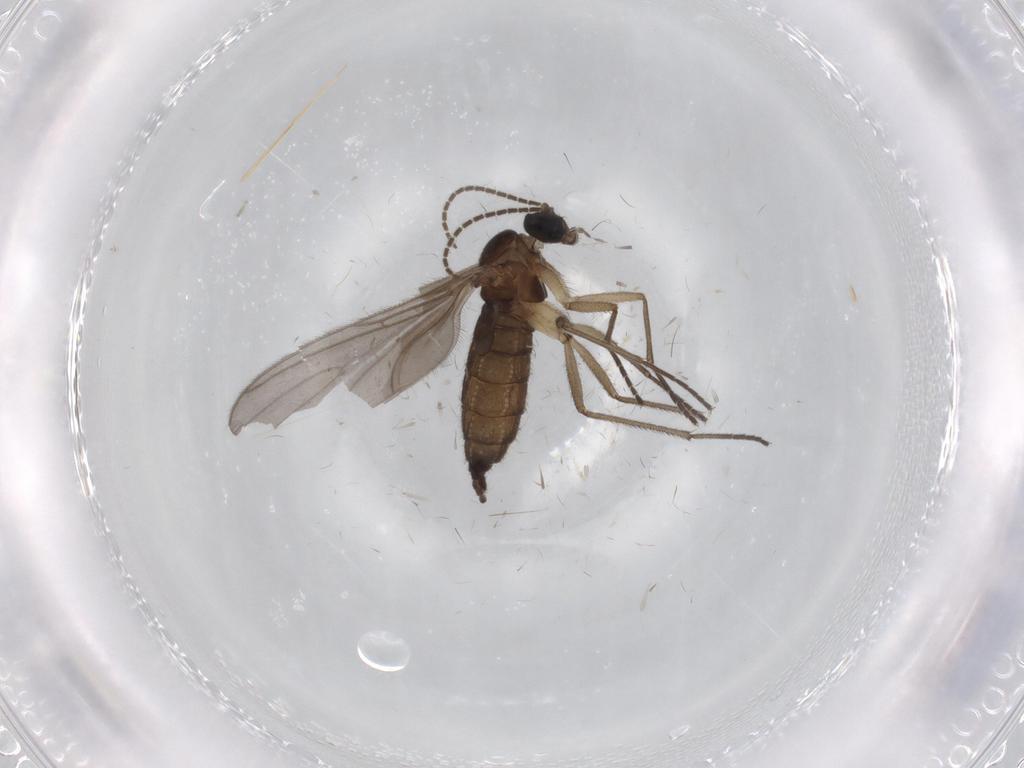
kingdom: Animalia
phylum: Arthropoda
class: Insecta
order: Diptera
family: Sciaridae
